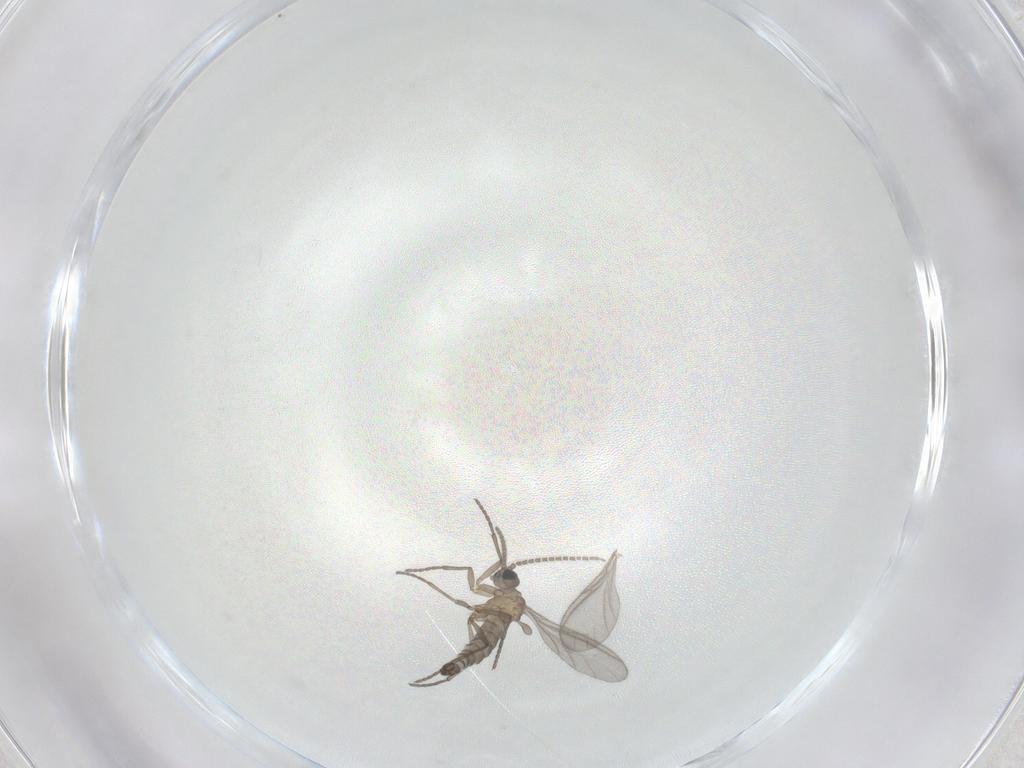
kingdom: Animalia
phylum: Arthropoda
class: Insecta
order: Diptera
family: Sciaridae
